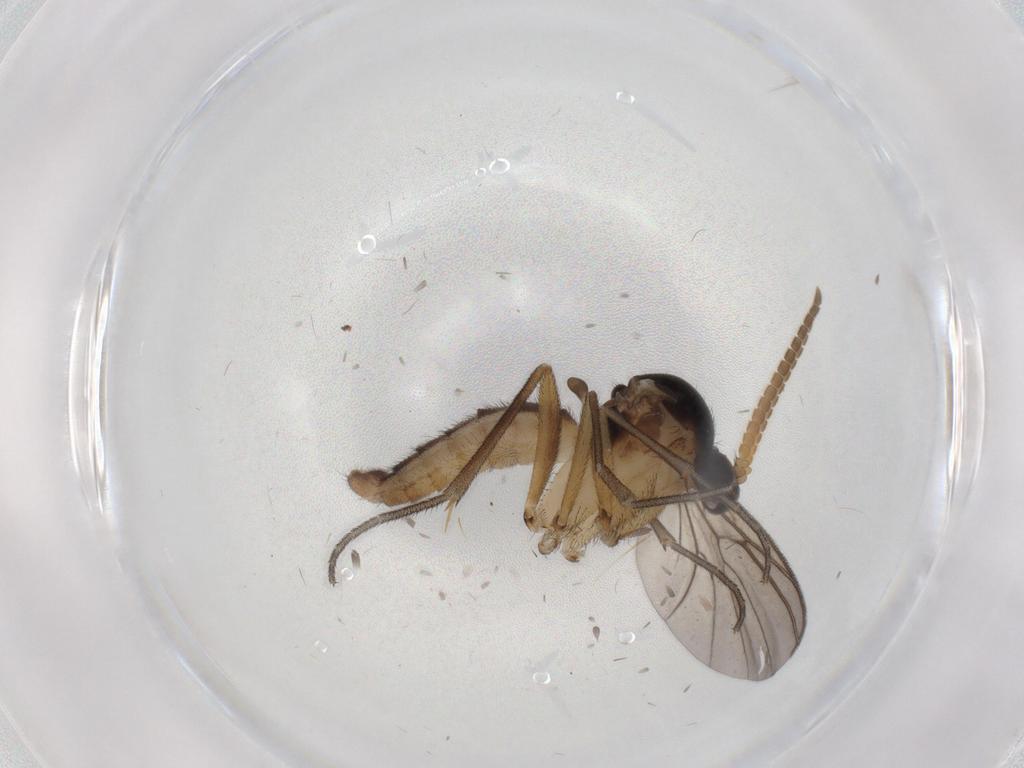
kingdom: Animalia
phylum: Arthropoda
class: Insecta
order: Diptera
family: Mycetophilidae
